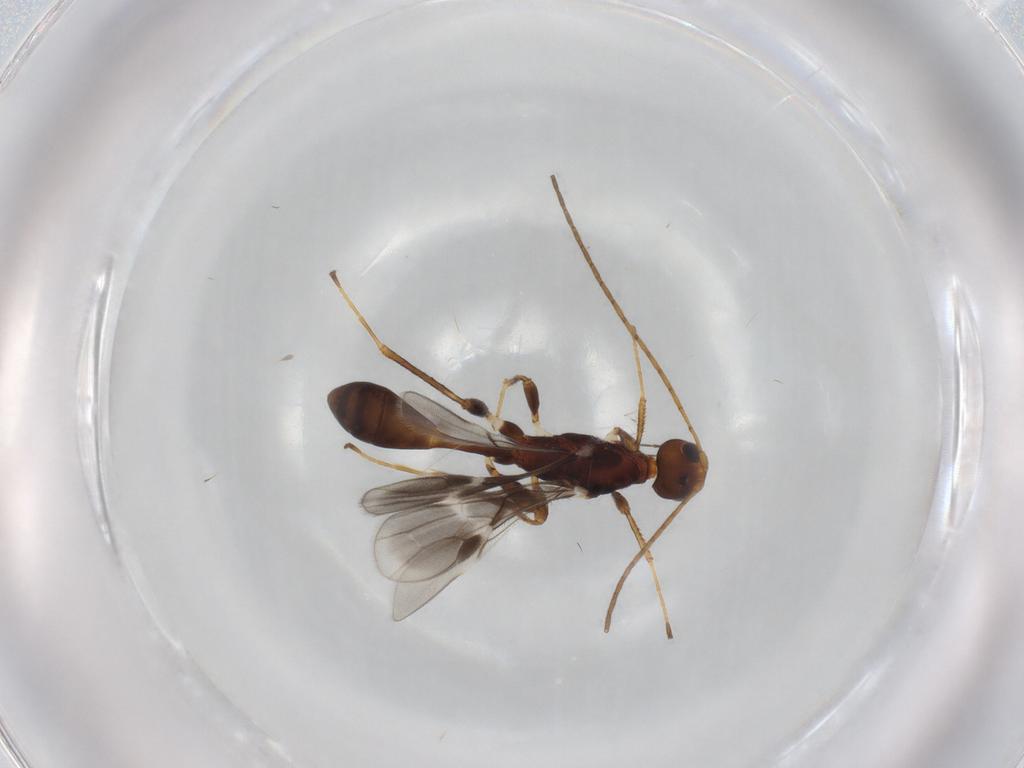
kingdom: Animalia
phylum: Arthropoda
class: Insecta
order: Hymenoptera
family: Braconidae
